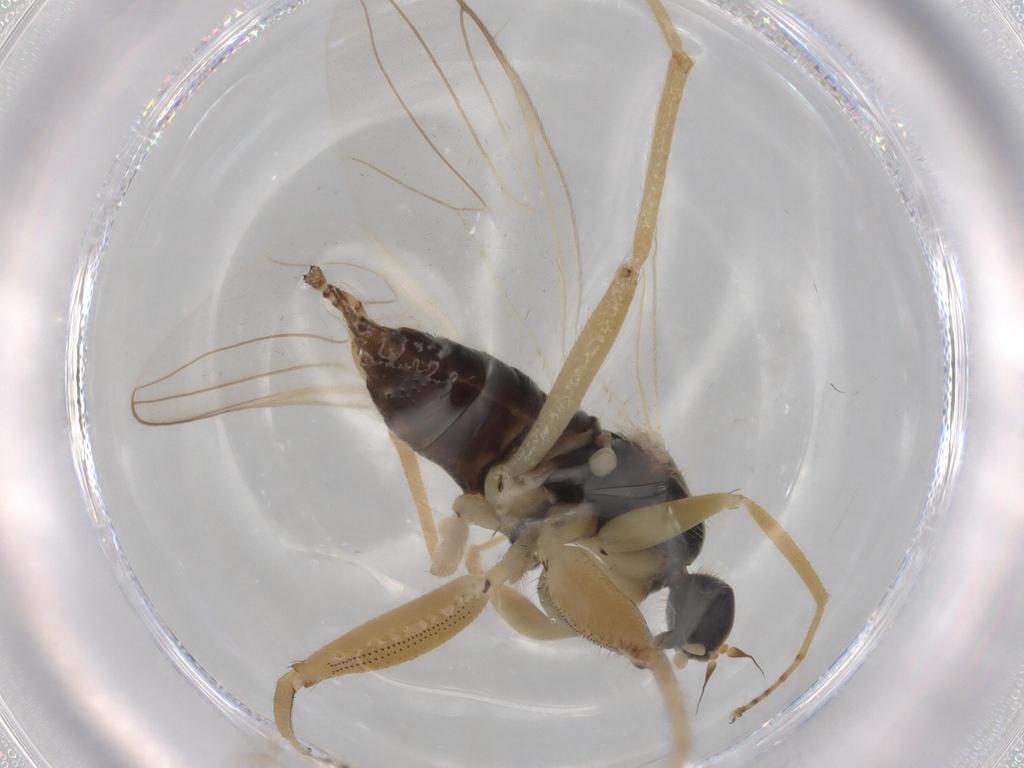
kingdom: Animalia
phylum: Arthropoda
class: Insecta
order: Diptera
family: Hybotidae
